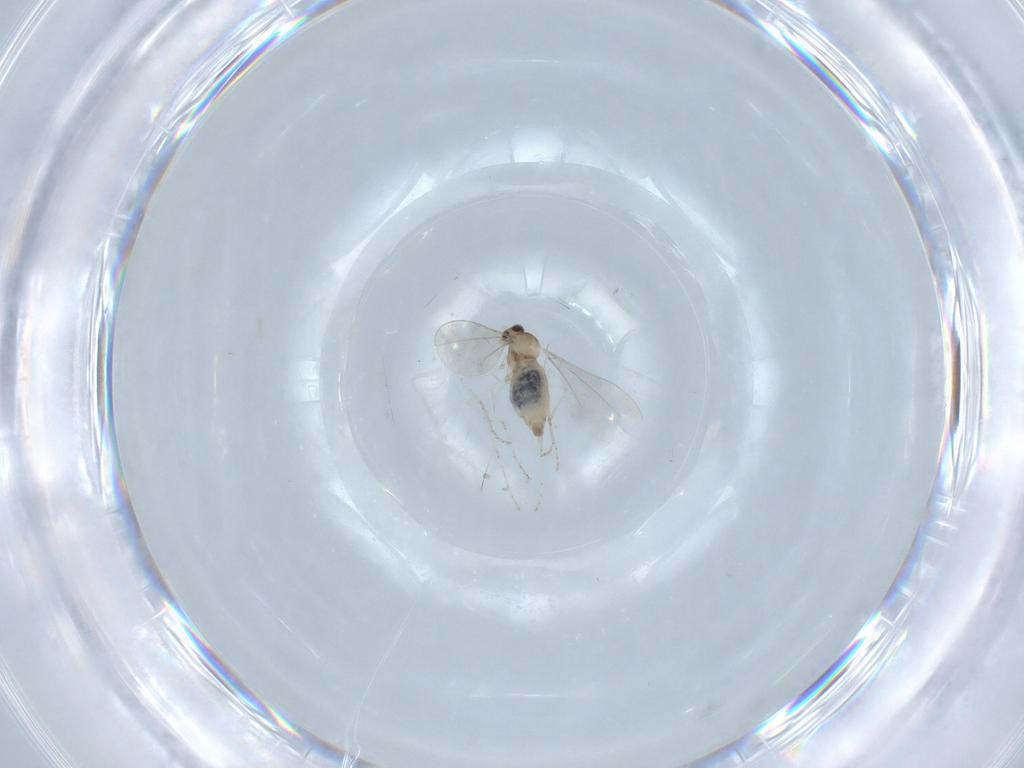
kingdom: Animalia
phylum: Arthropoda
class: Insecta
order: Diptera
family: Cecidomyiidae
